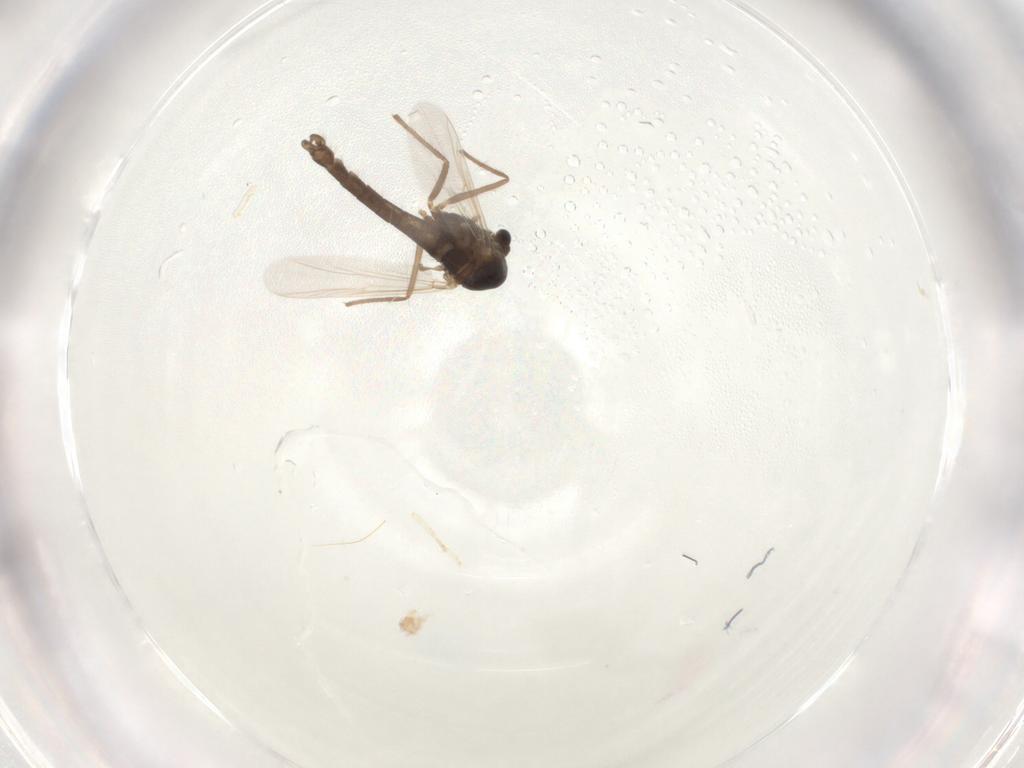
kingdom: Animalia
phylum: Arthropoda
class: Insecta
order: Diptera
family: Chironomidae
